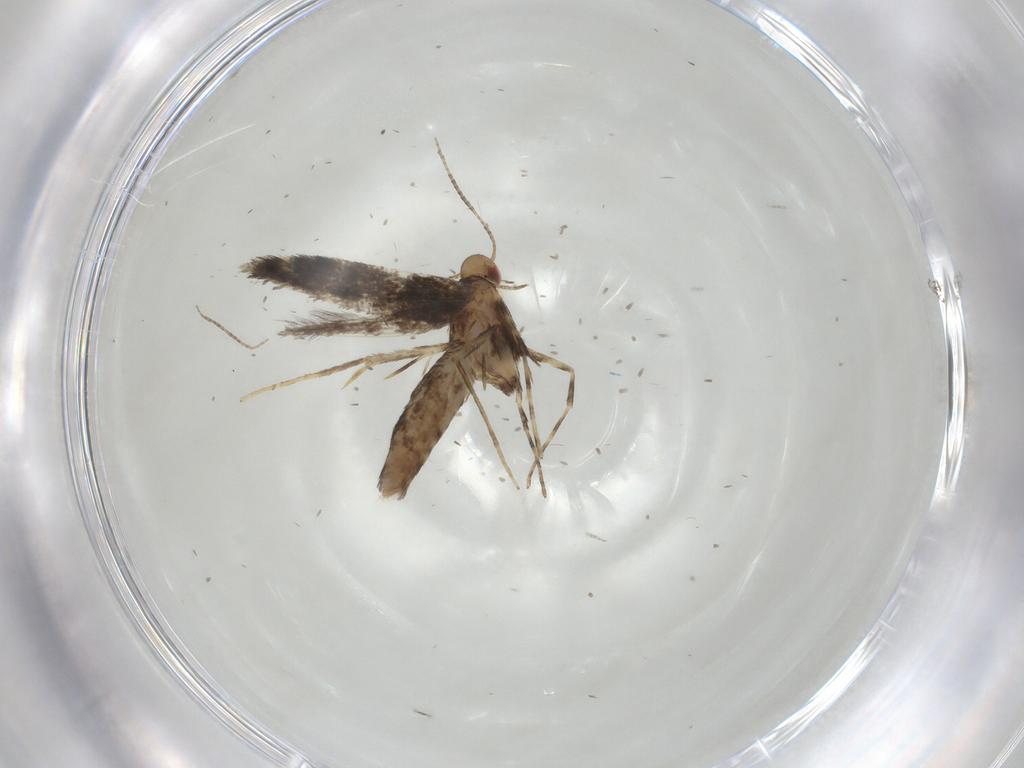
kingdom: Animalia
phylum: Arthropoda
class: Insecta
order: Lepidoptera
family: Gracillariidae
